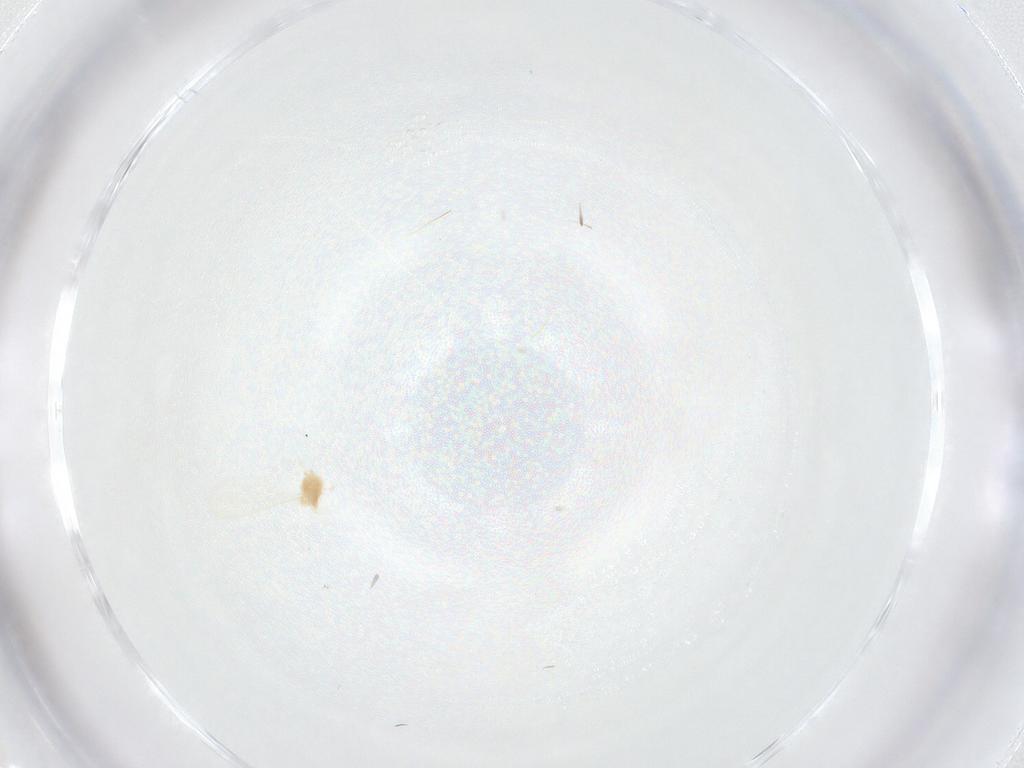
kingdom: Animalia
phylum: Arthropoda
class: Insecta
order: Diptera
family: Cecidomyiidae
